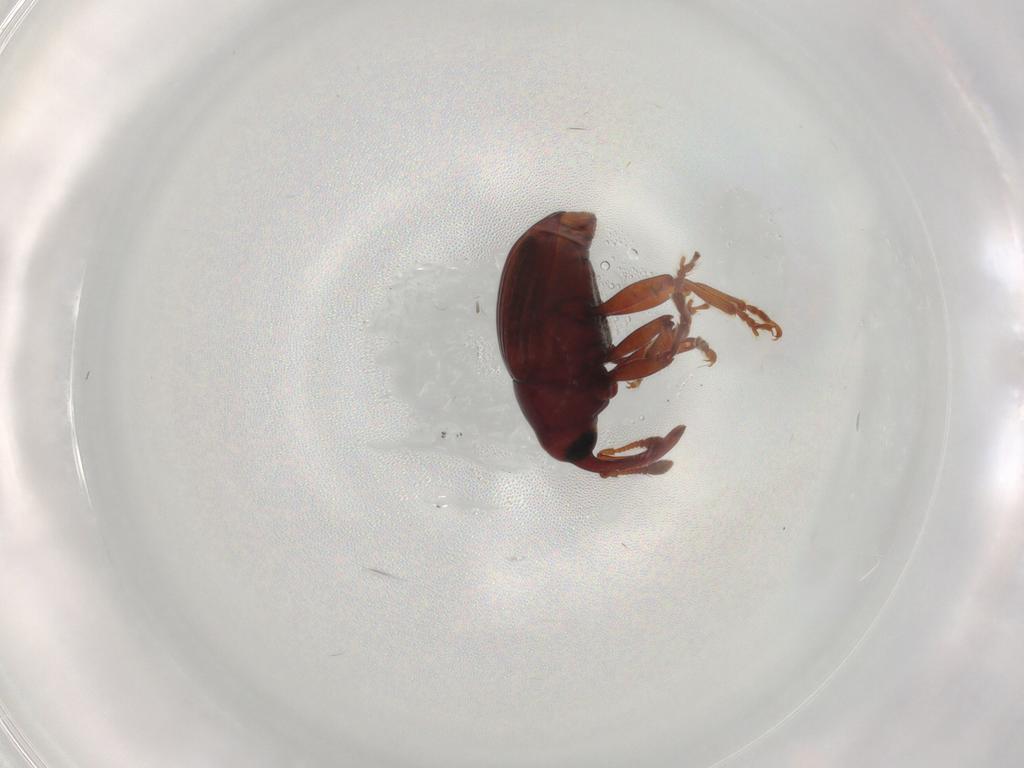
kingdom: Animalia
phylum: Arthropoda
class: Insecta
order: Coleoptera
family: Curculionidae
